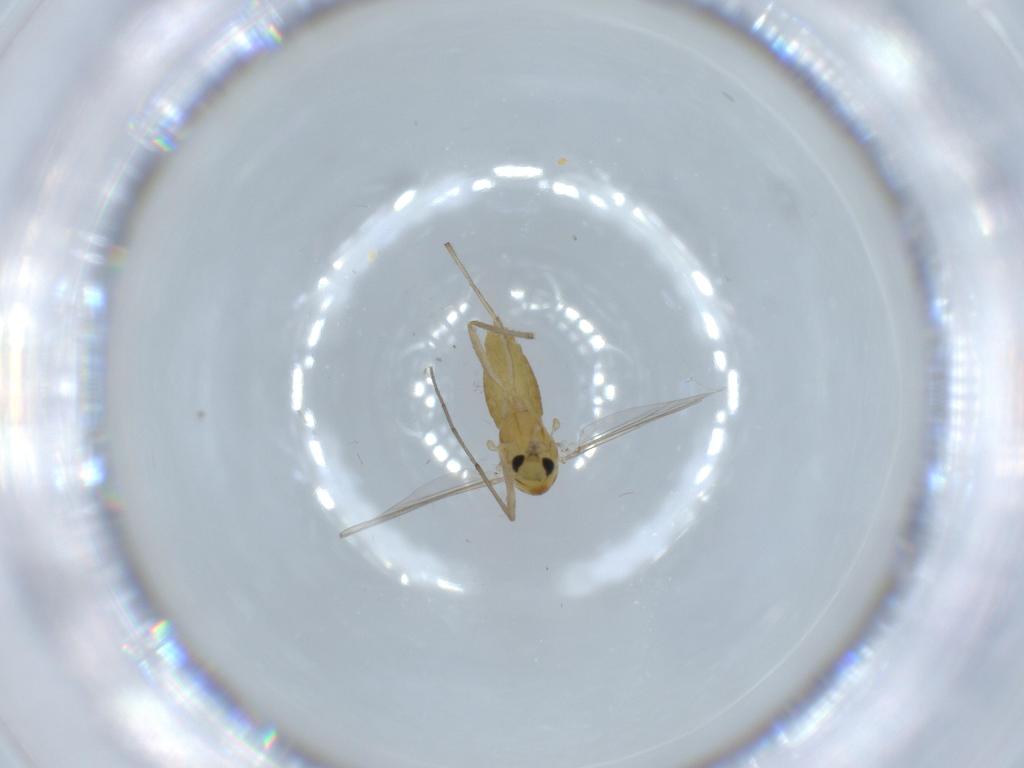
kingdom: Animalia
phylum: Arthropoda
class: Insecta
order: Diptera
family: Chironomidae
